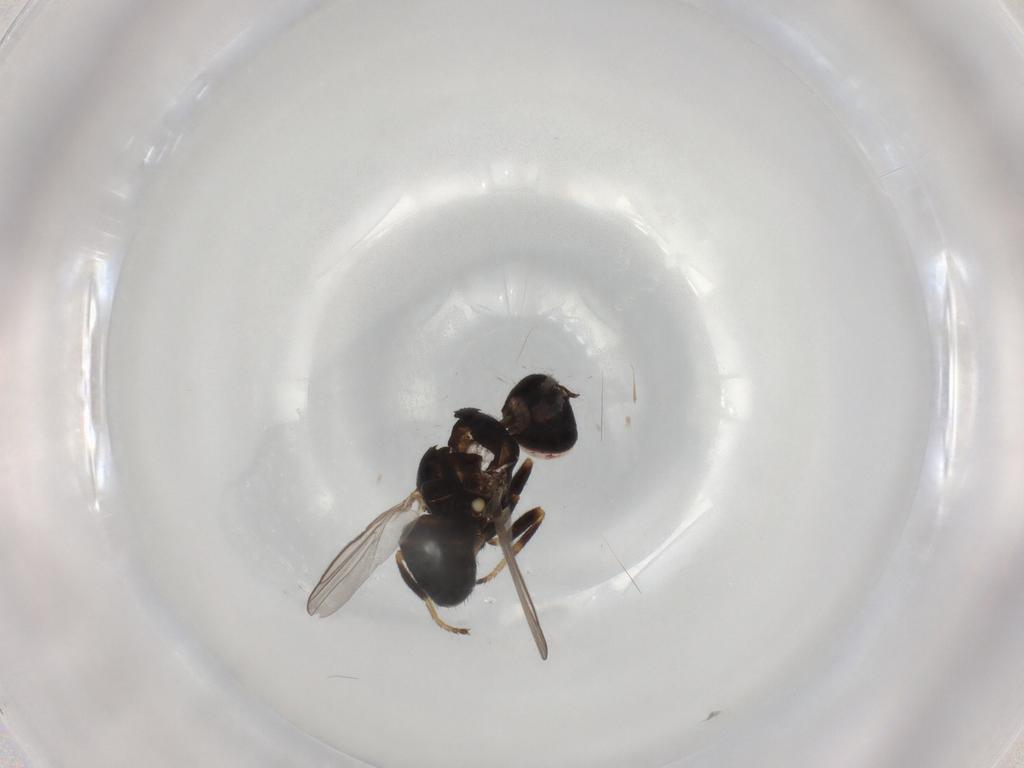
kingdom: Animalia
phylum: Arthropoda
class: Insecta
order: Diptera
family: Chloropidae
